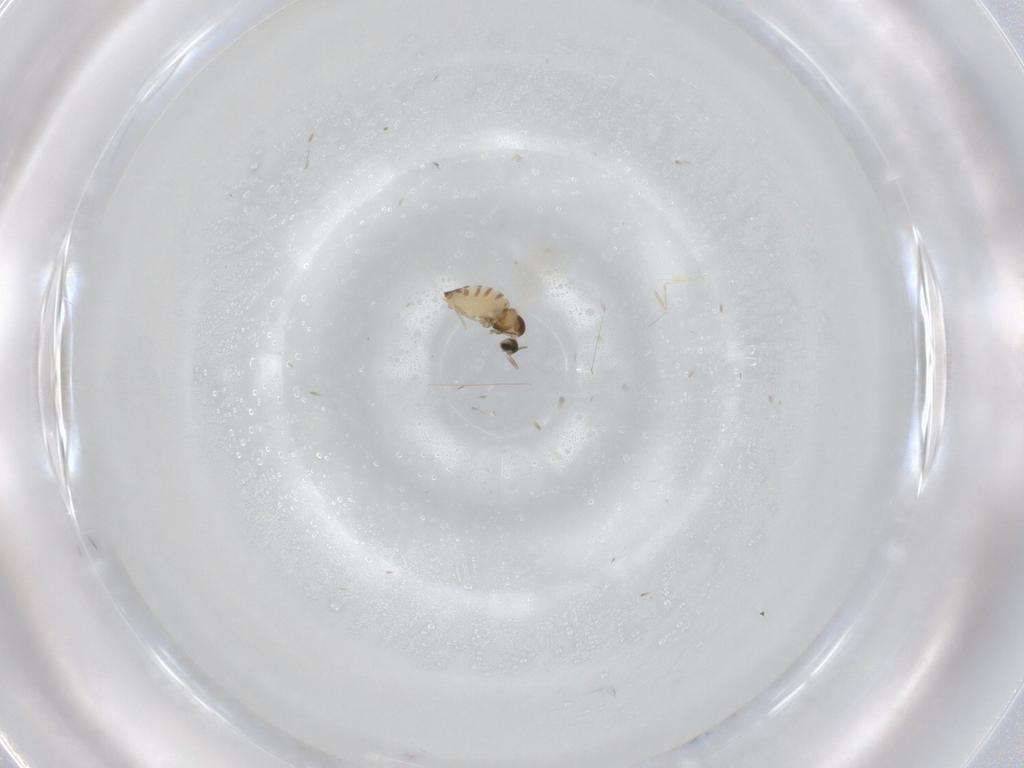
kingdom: Animalia
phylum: Arthropoda
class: Insecta
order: Diptera
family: Cecidomyiidae
